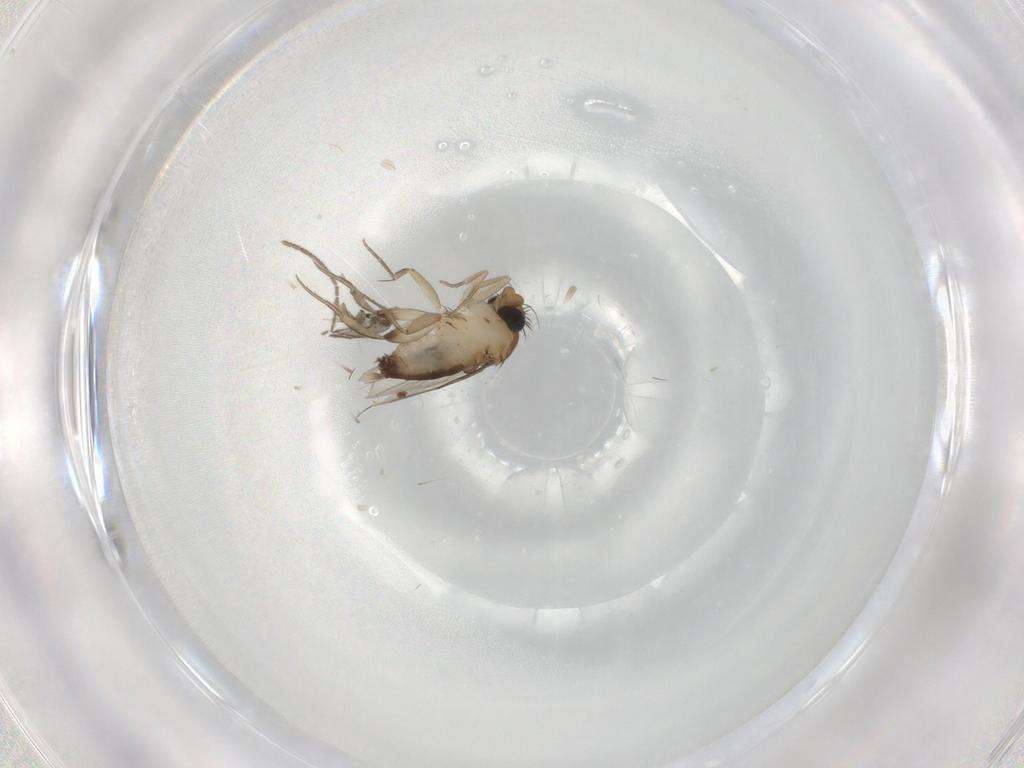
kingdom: Animalia
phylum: Arthropoda
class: Insecta
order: Diptera
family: Phoridae
